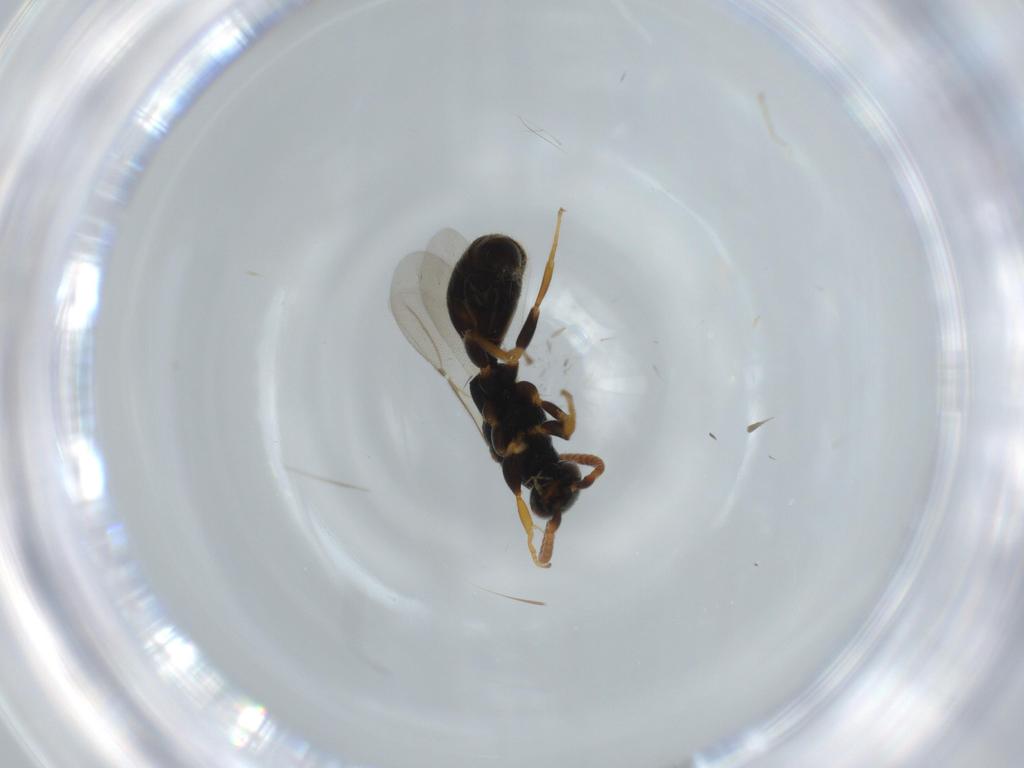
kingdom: Animalia
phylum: Arthropoda
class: Insecta
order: Hymenoptera
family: Bethylidae
